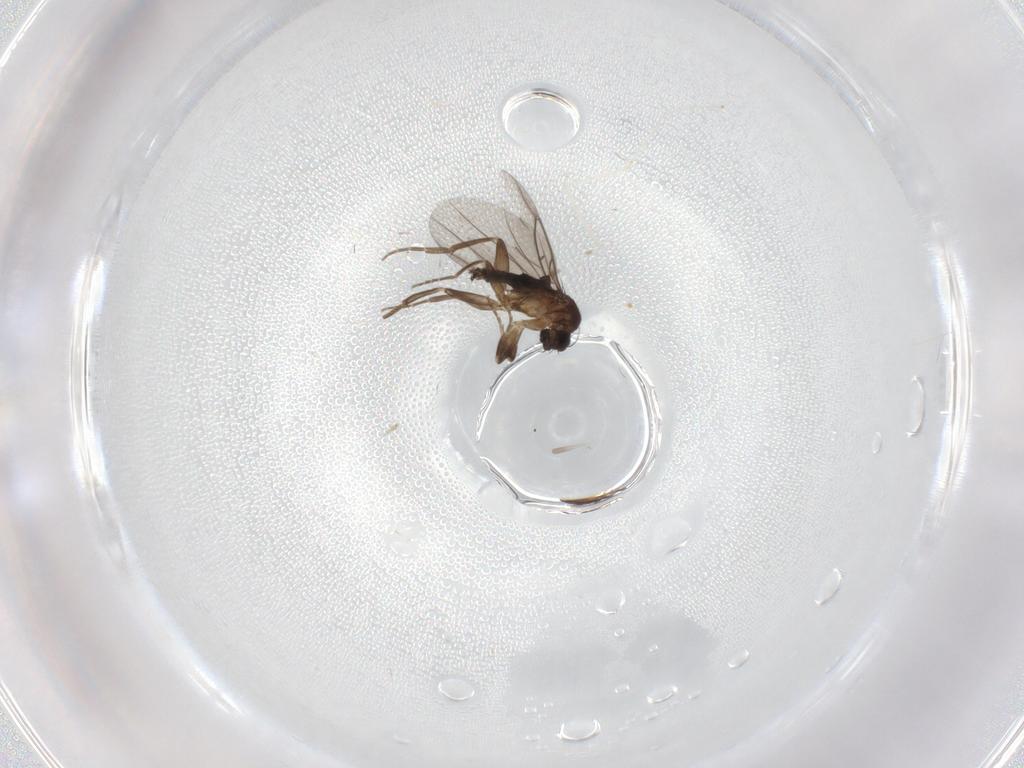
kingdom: Animalia
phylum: Arthropoda
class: Insecta
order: Diptera
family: Cecidomyiidae
